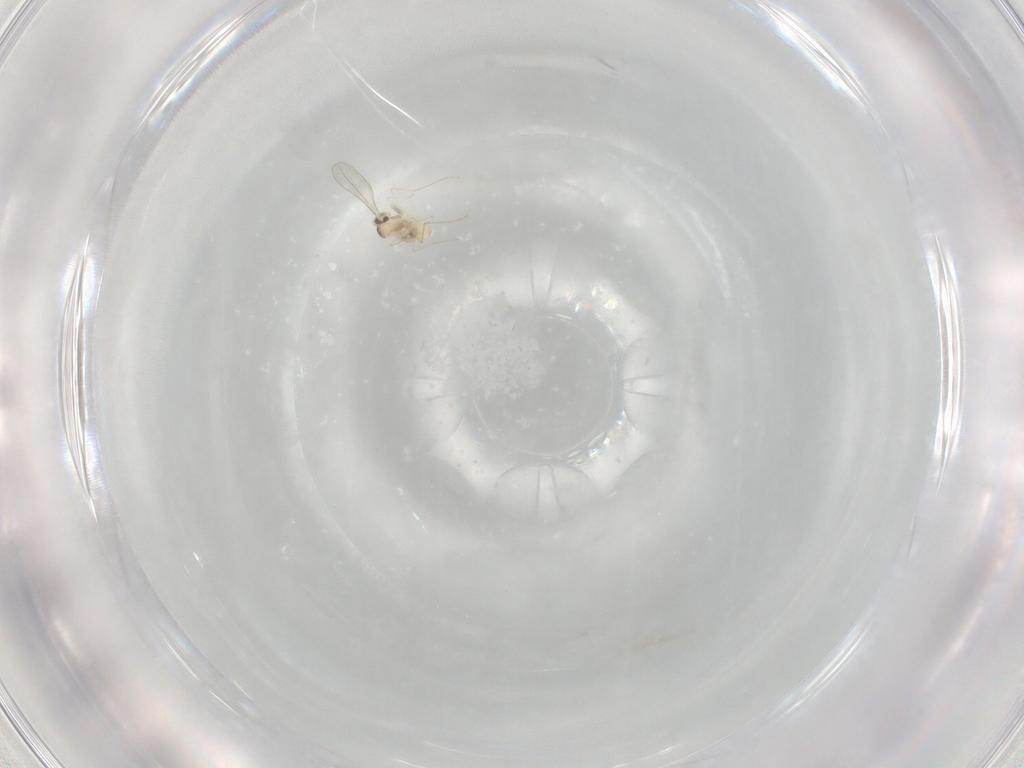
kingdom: Animalia
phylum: Arthropoda
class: Insecta
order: Diptera
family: Cecidomyiidae
